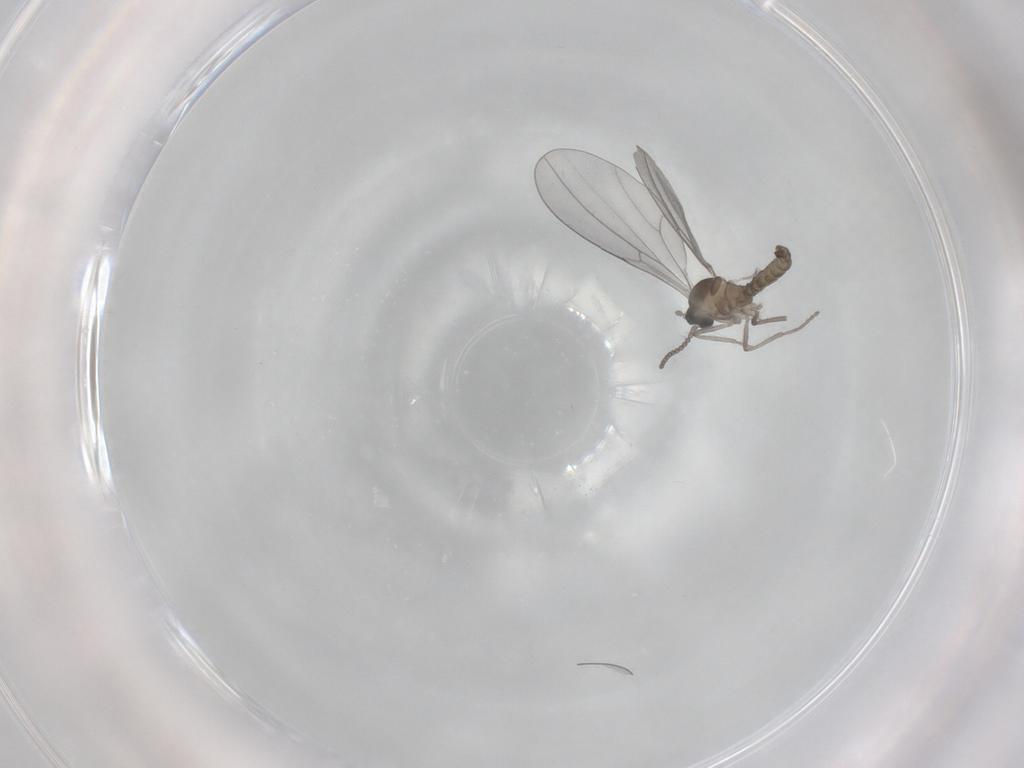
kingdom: Animalia
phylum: Arthropoda
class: Insecta
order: Diptera
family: Cecidomyiidae
